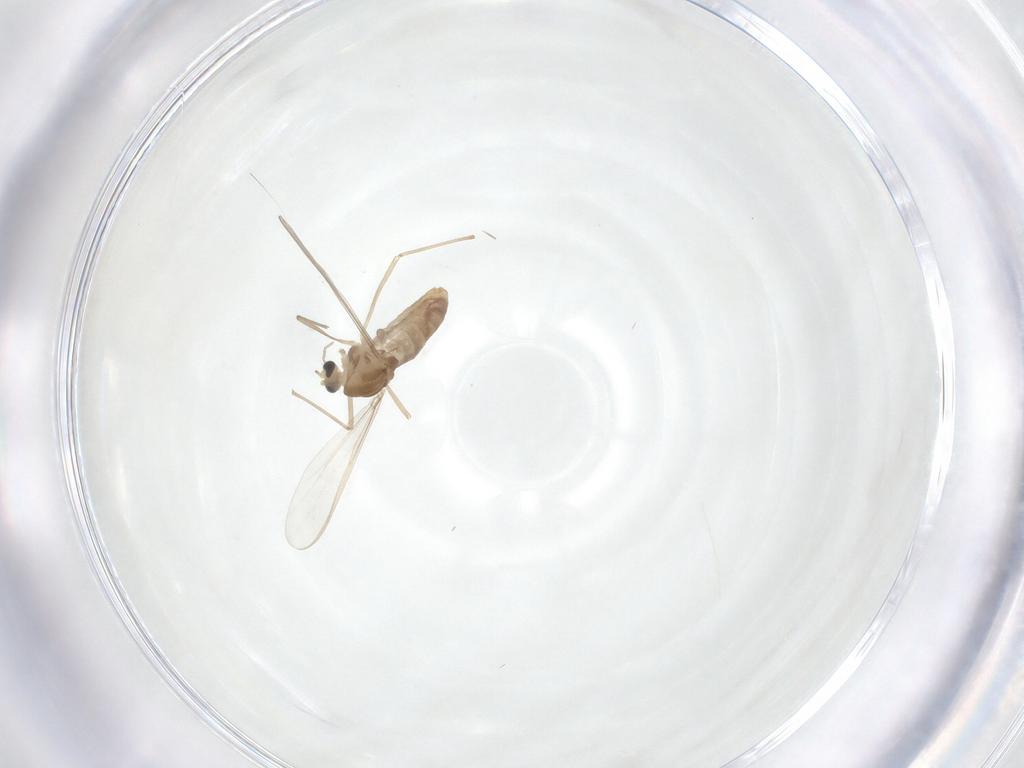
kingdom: Animalia
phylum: Arthropoda
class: Insecta
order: Diptera
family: Chironomidae
